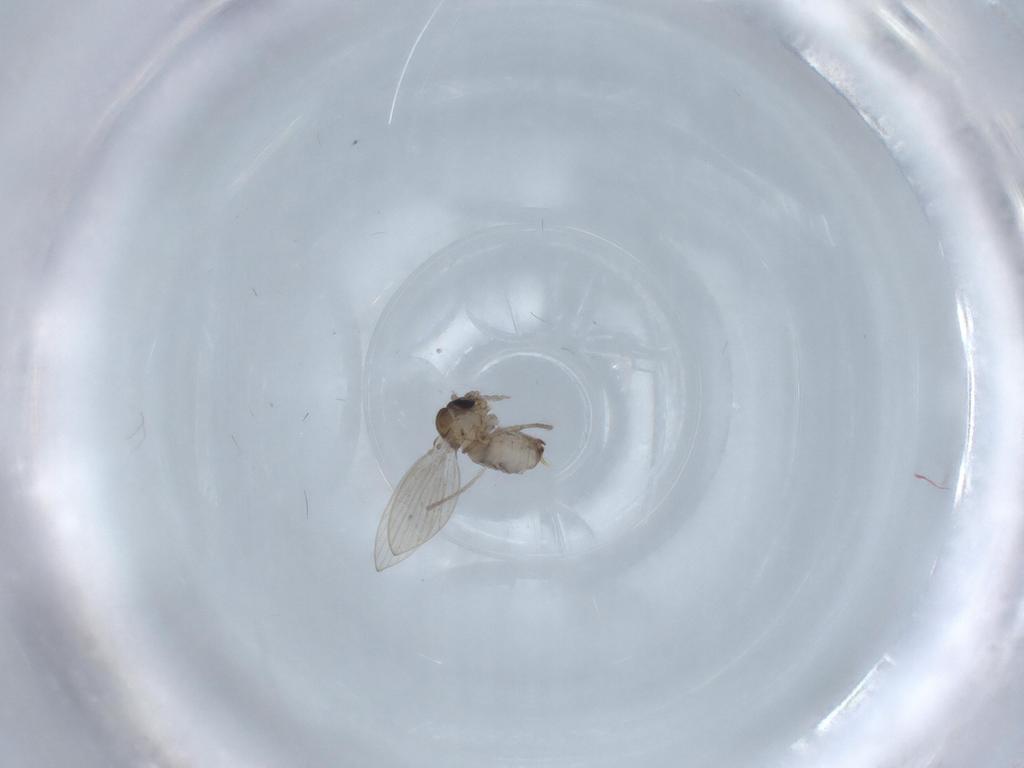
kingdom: Animalia
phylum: Arthropoda
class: Insecta
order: Diptera
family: Psychodidae
